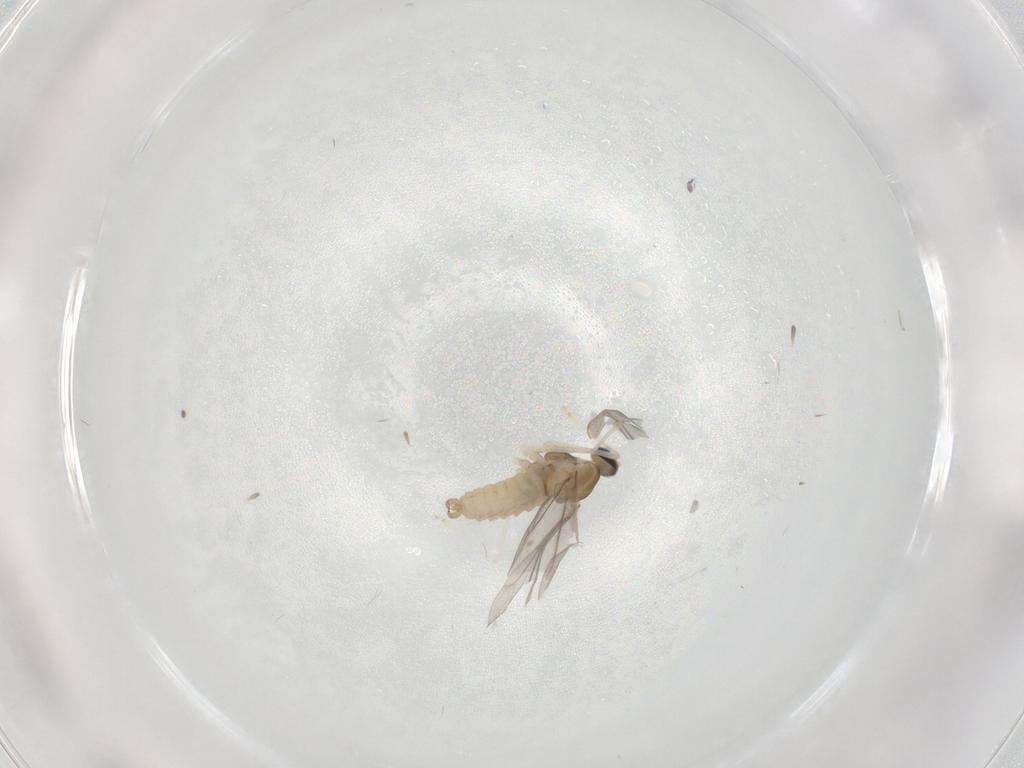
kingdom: Animalia
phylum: Arthropoda
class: Insecta
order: Diptera
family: Cecidomyiidae
